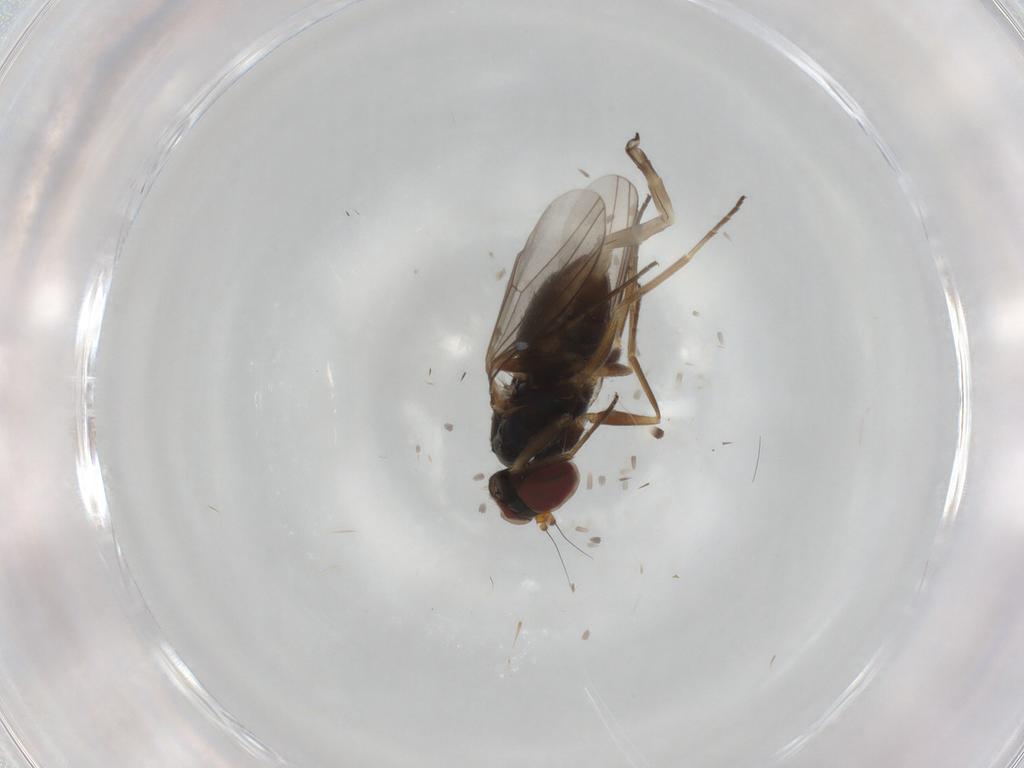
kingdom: Animalia
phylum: Arthropoda
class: Insecta
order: Diptera
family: Dolichopodidae
